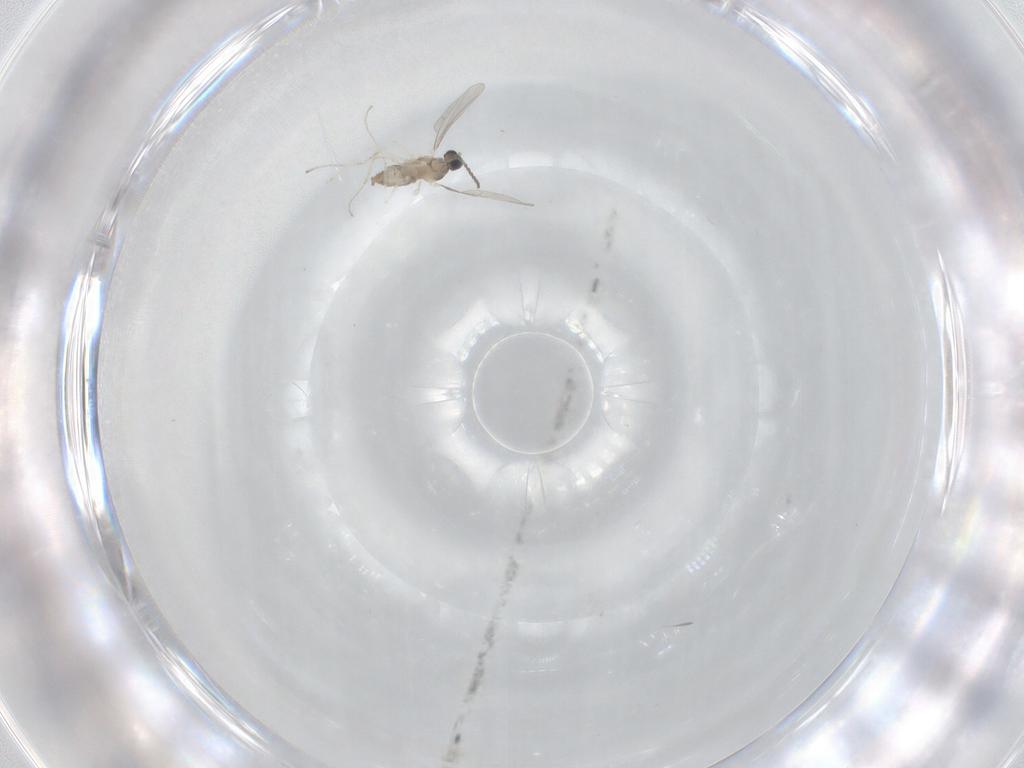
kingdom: Animalia
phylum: Arthropoda
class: Insecta
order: Diptera
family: Cecidomyiidae
